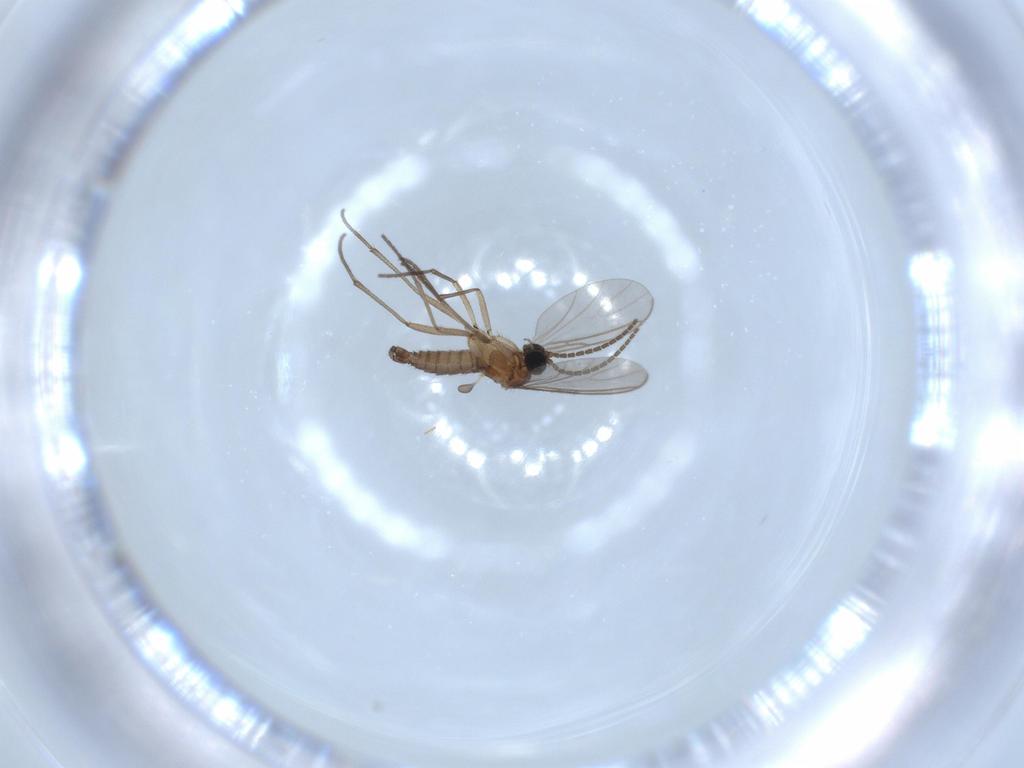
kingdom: Animalia
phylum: Arthropoda
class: Insecta
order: Diptera
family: Sciaridae
